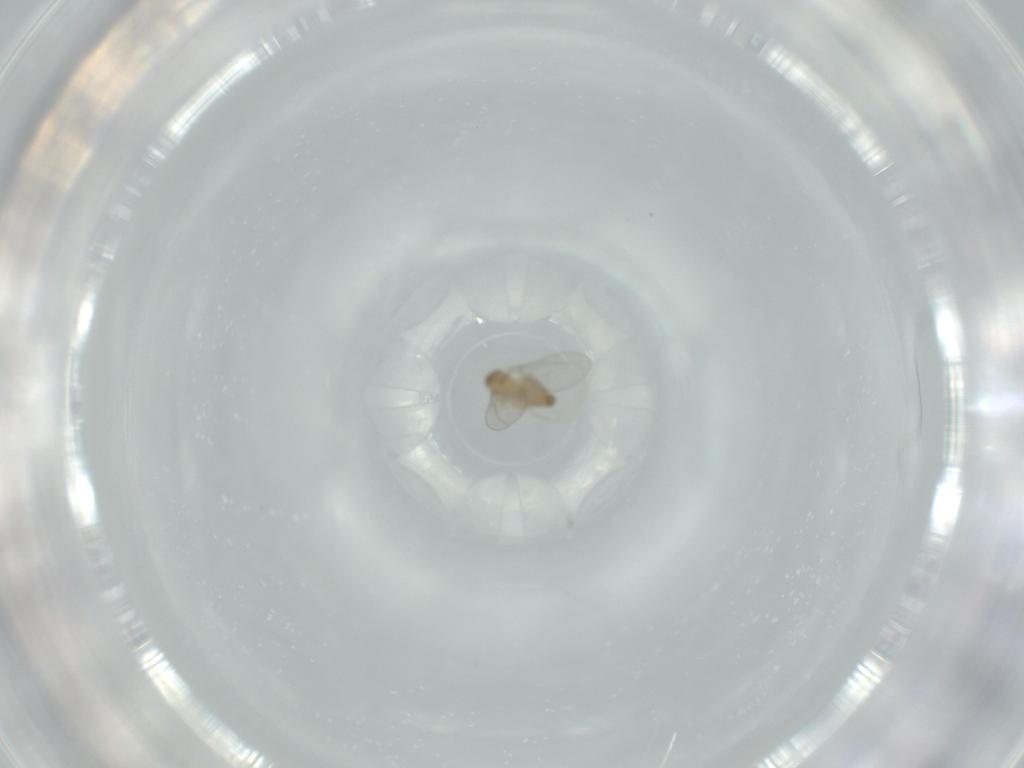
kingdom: Animalia
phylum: Arthropoda
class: Insecta
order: Diptera
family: Cecidomyiidae
